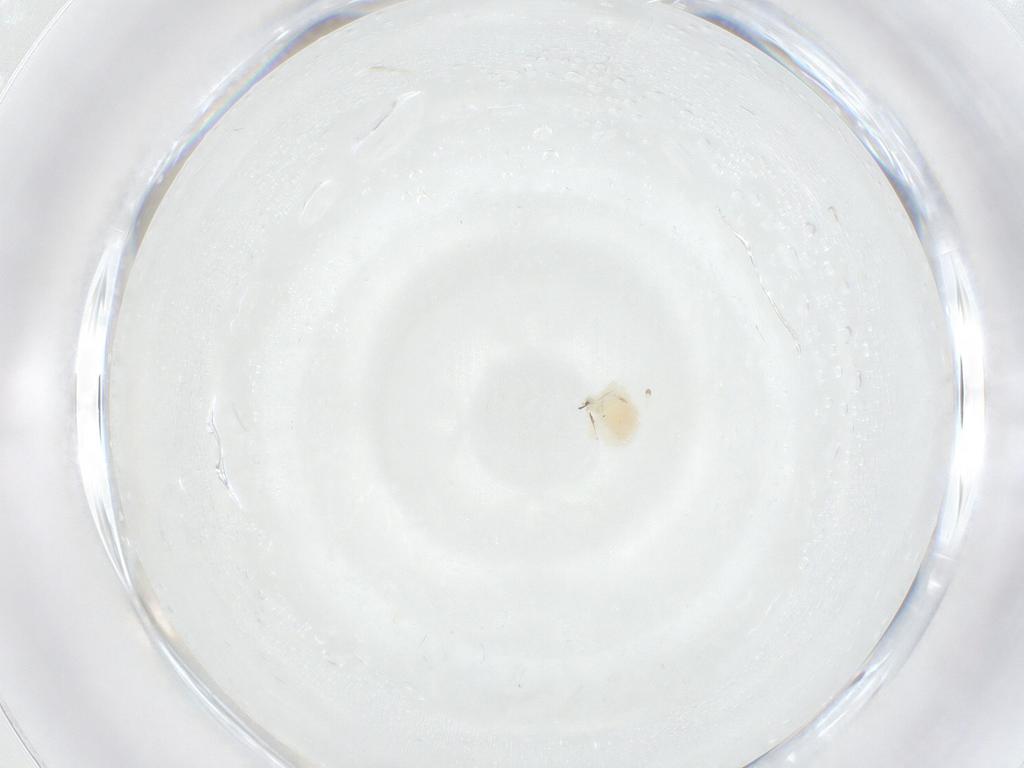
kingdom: Animalia
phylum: Arthropoda
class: Arachnida
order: Trombidiformes
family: Anystidae
